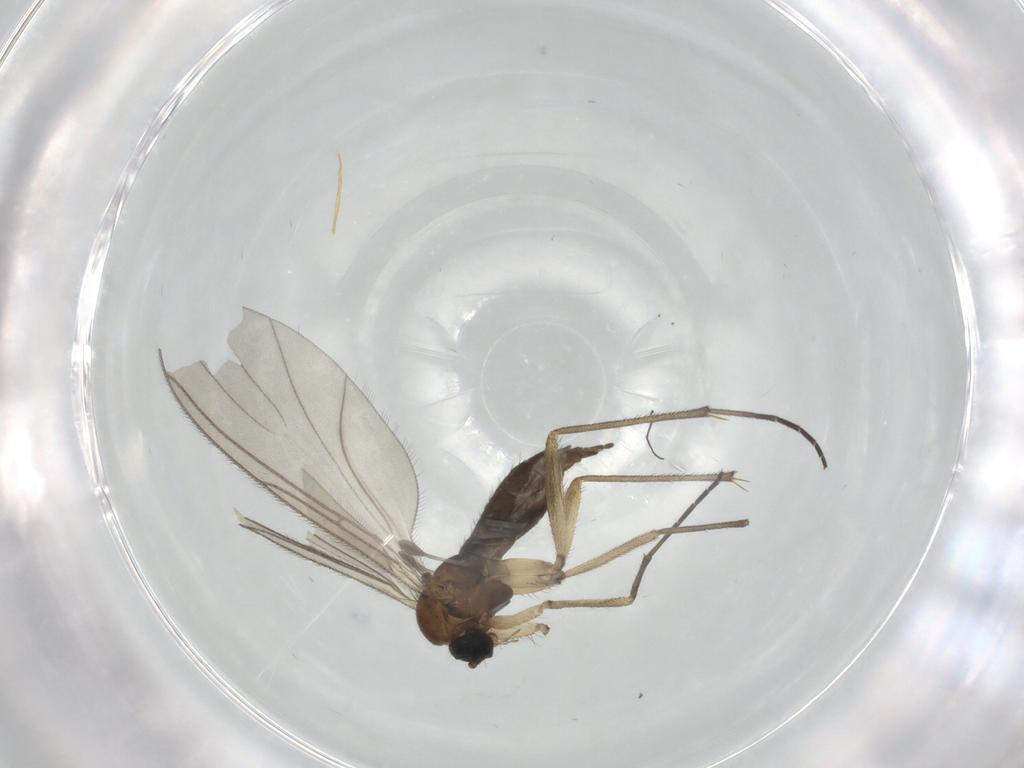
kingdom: Animalia
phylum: Arthropoda
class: Insecta
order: Diptera
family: Sciaridae
